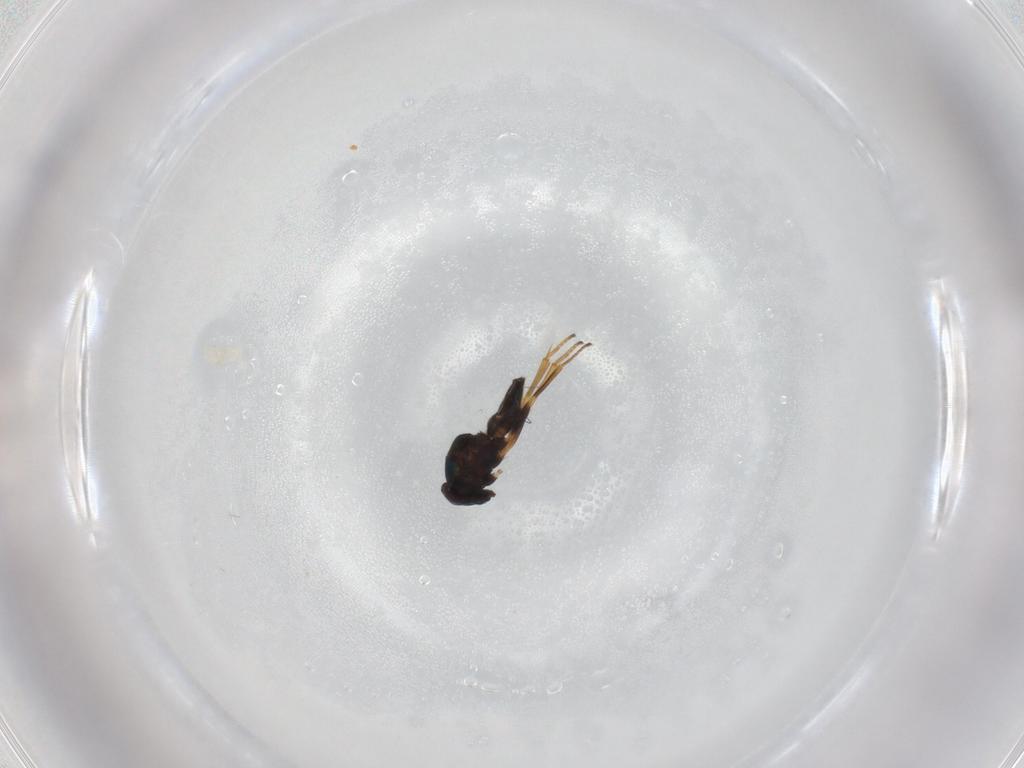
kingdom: Animalia
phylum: Arthropoda
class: Insecta
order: Hymenoptera
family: Encyrtidae
